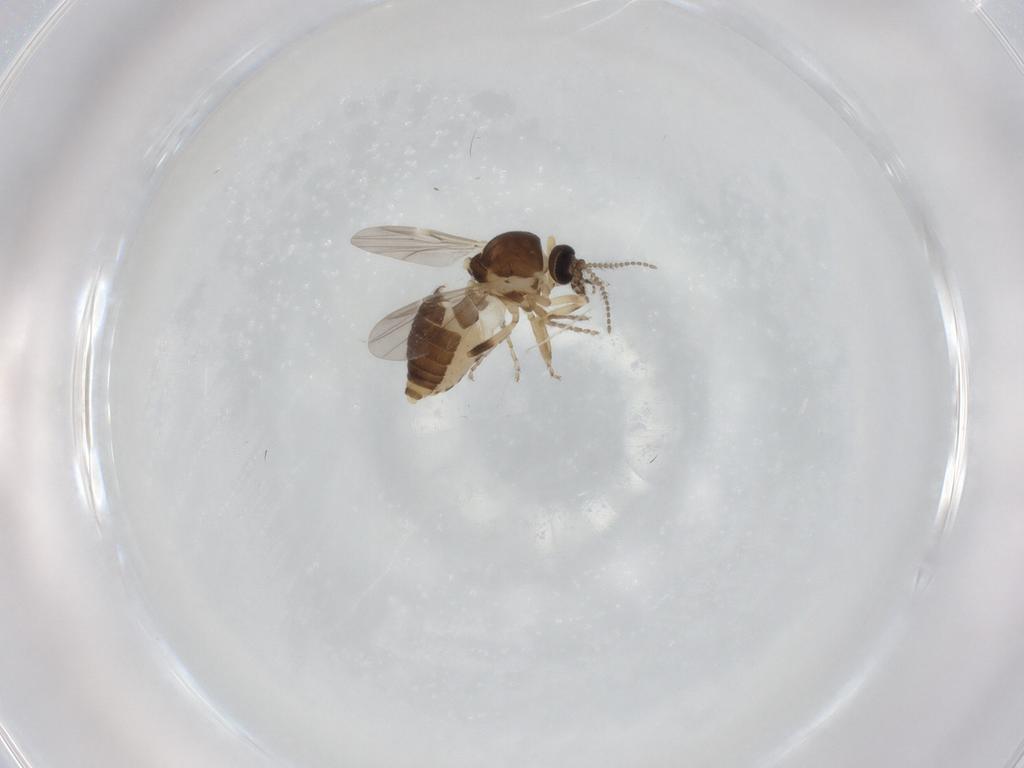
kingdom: Animalia
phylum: Arthropoda
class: Insecta
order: Diptera
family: Ceratopogonidae
